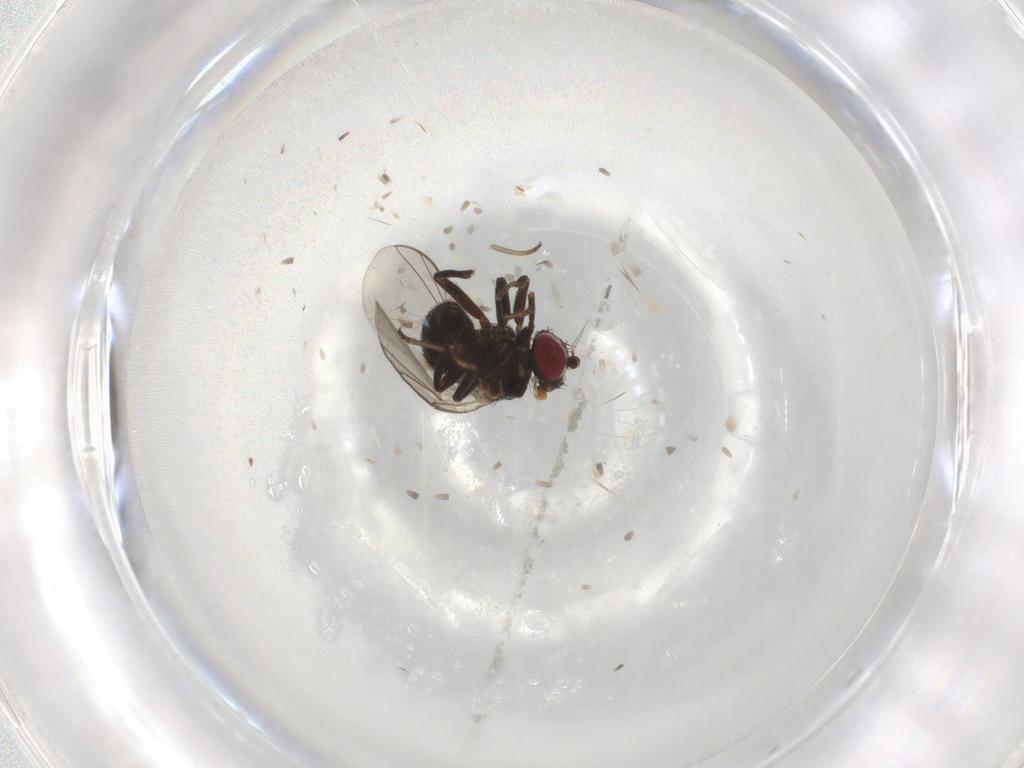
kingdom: Animalia
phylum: Arthropoda
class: Insecta
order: Diptera
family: Agromyzidae
